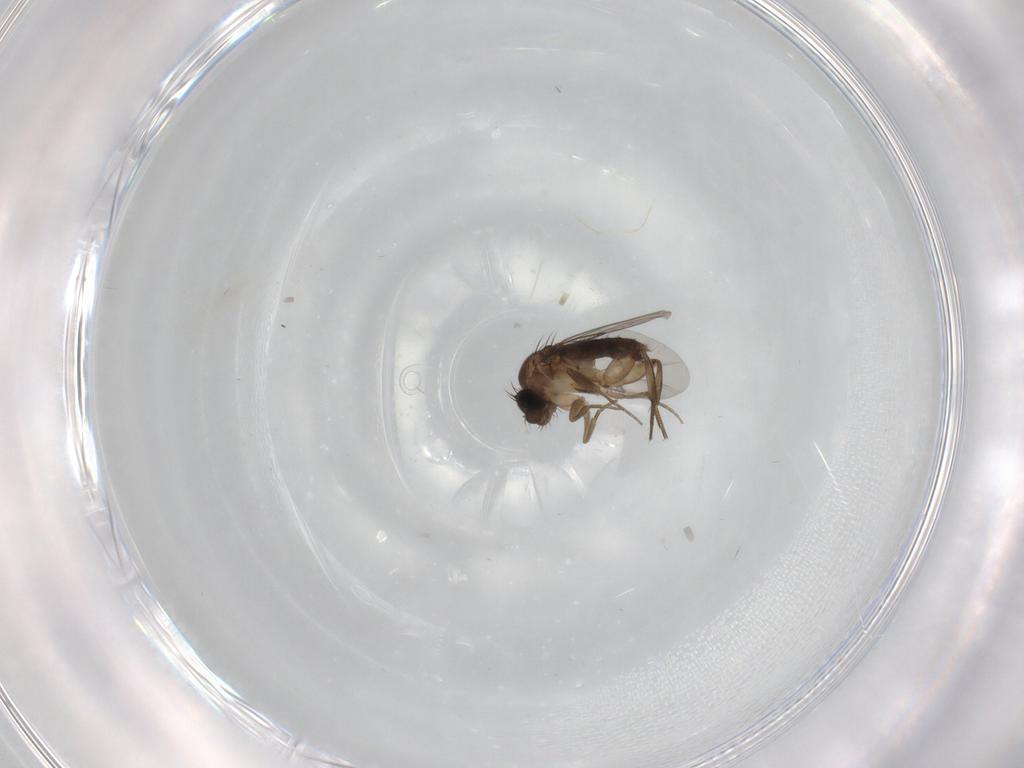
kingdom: Animalia
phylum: Arthropoda
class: Insecta
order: Diptera
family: Phoridae
